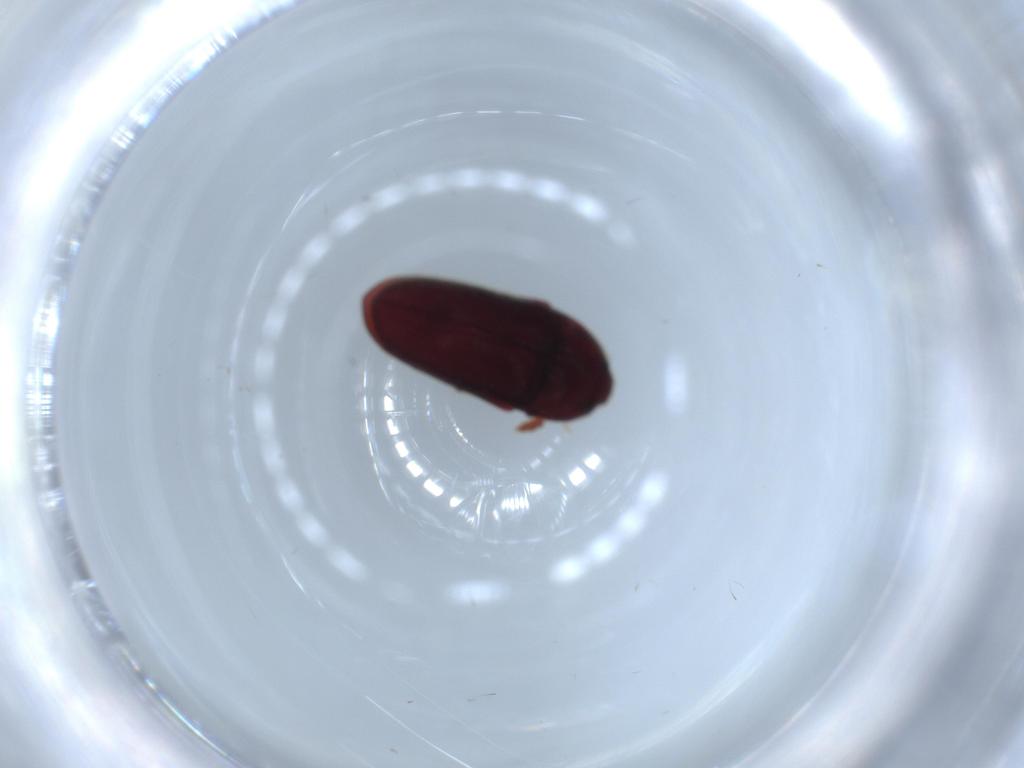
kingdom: Animalia
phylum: Arthropoda
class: Insecta
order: Coleoptera
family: Throscidae
